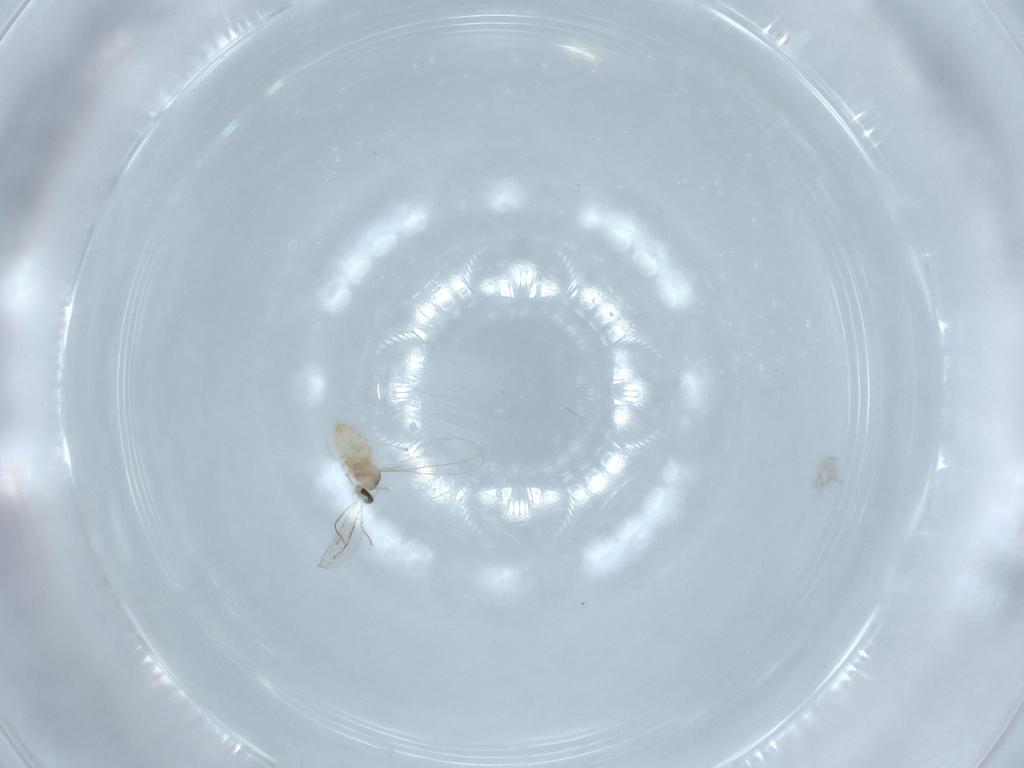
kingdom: Animalia
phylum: Arthropoda
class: Insecta
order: Diptera
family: Cecidomyiidae
